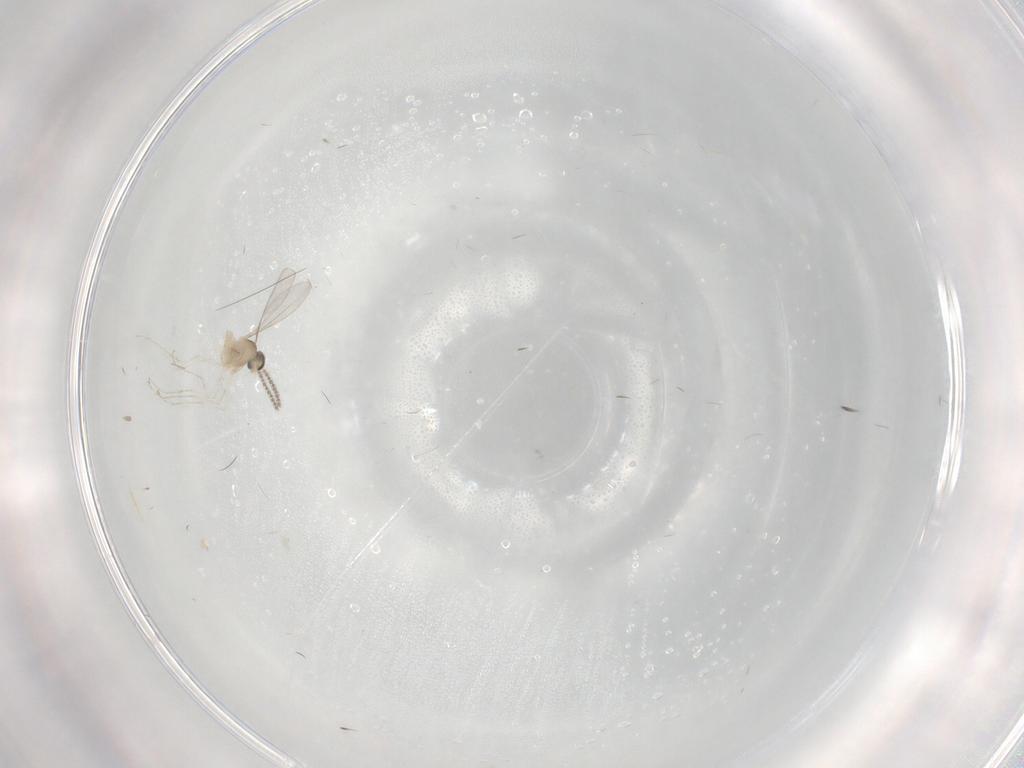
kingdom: Animalia
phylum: Arthropoda
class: Insecta
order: Diptera
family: Cecidomyiidae
